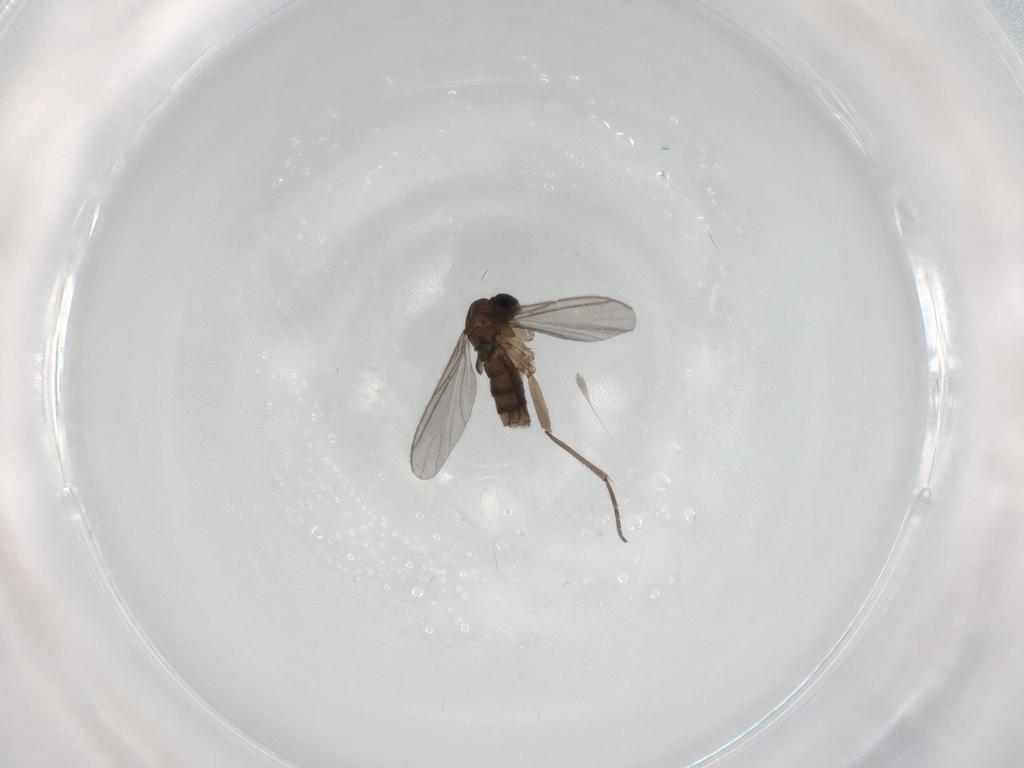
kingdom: Animalia
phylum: Arthropoda
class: Insecta
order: Diptera
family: Sciaridae
